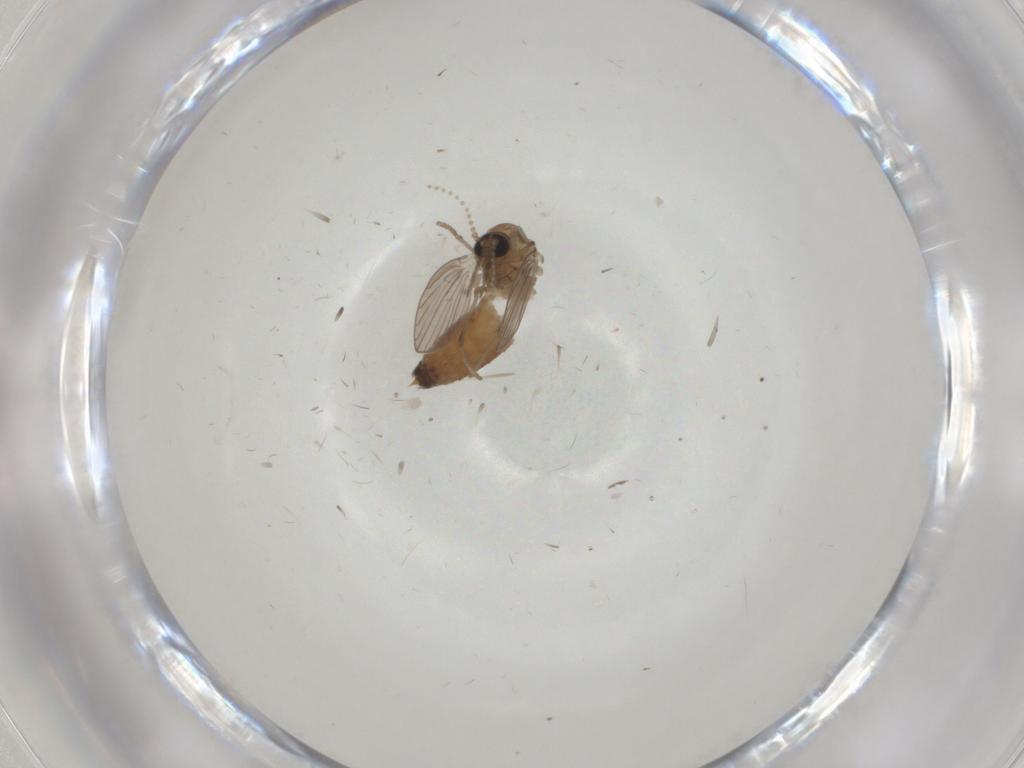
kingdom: Animalia
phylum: Arthropoda
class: Insecta
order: Diptera
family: Psychodidae
